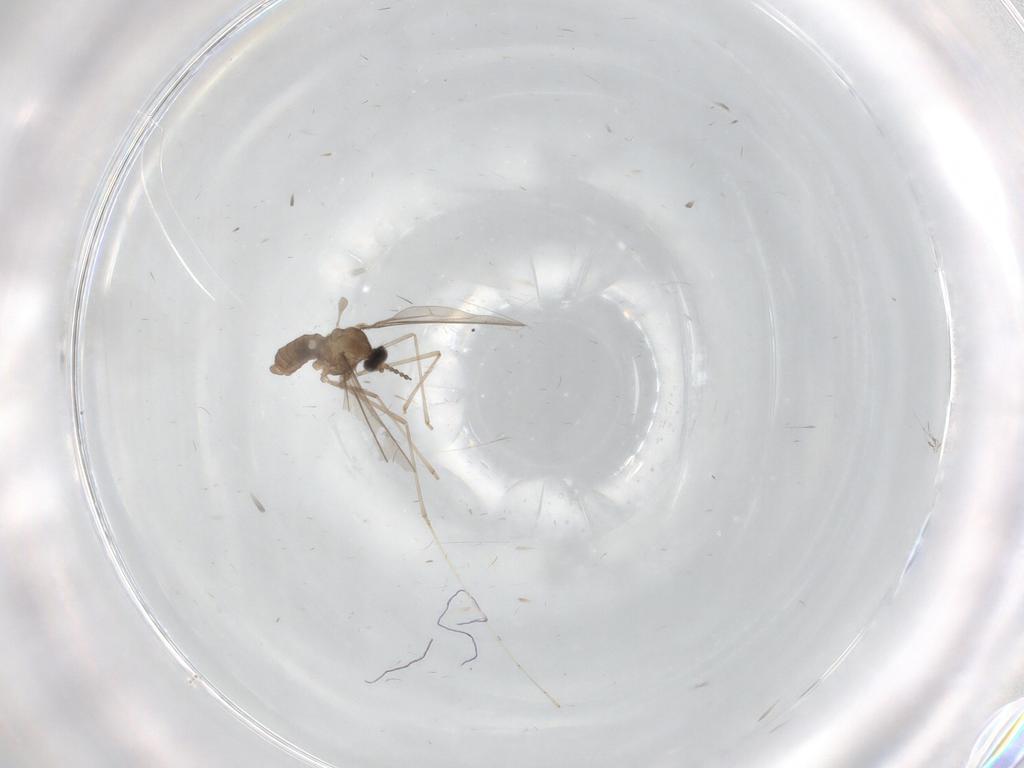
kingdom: Animalia
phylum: Arthropoda
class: Insecta
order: Diptera
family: Cecidomyiidae
